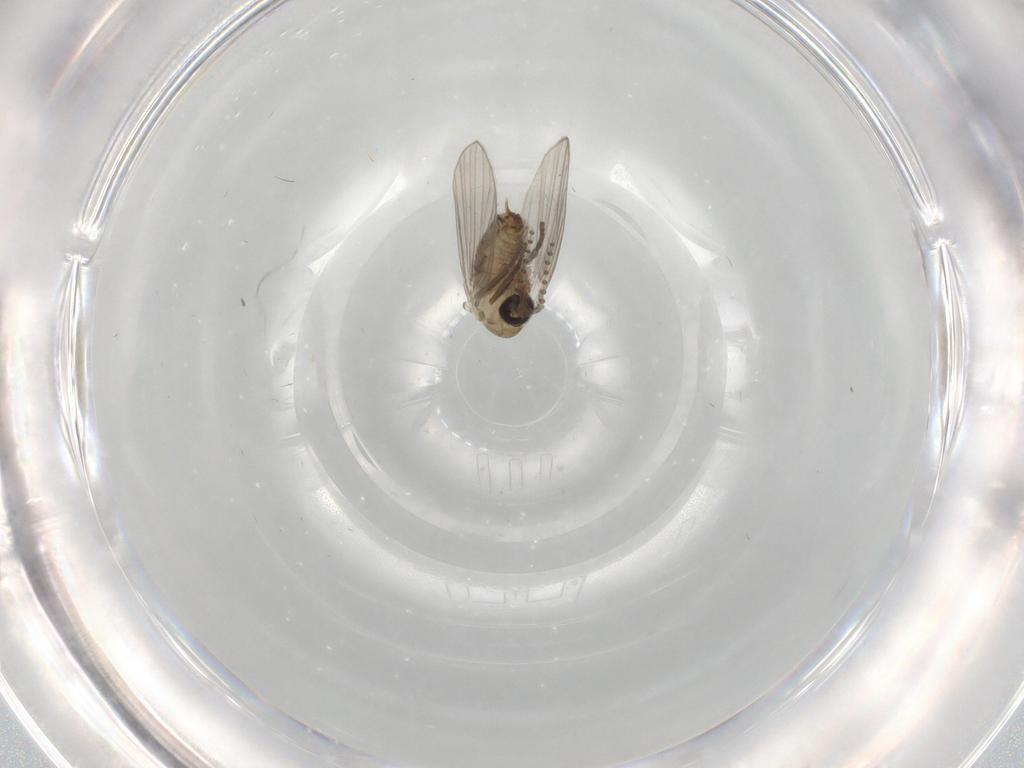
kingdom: Animalia
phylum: Arthropoda
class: Insecta
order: Diptera
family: Psychodidae
